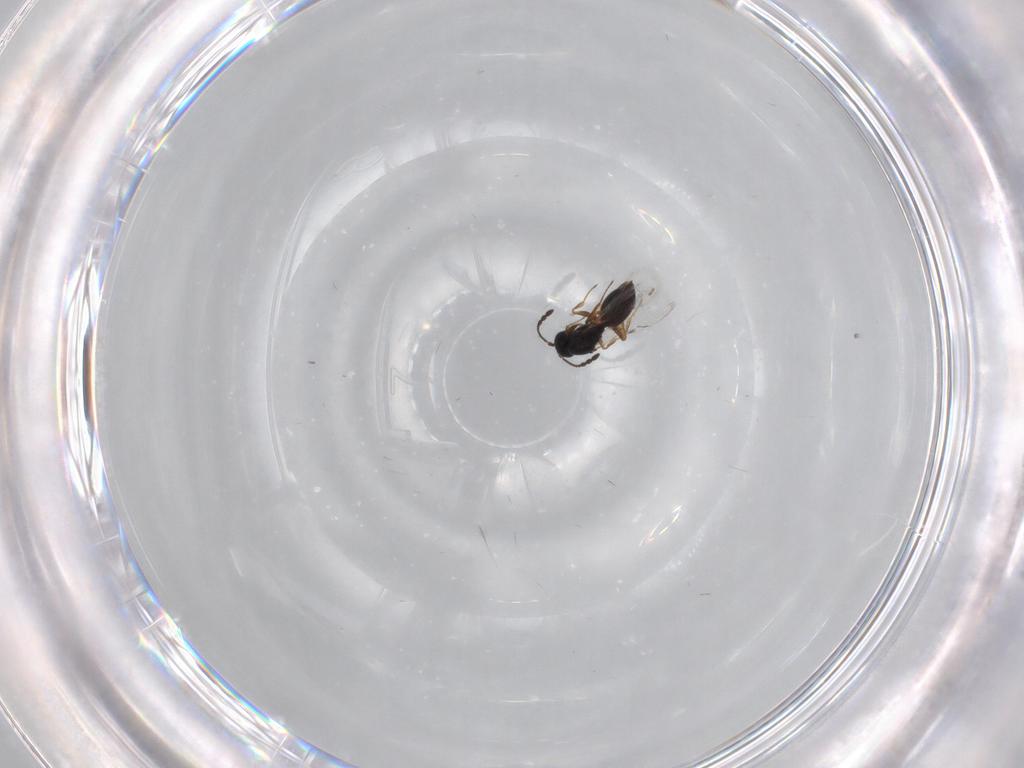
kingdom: Animalia
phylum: Arthropoda
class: Insecta
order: Hymenoptera
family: Figitidae
